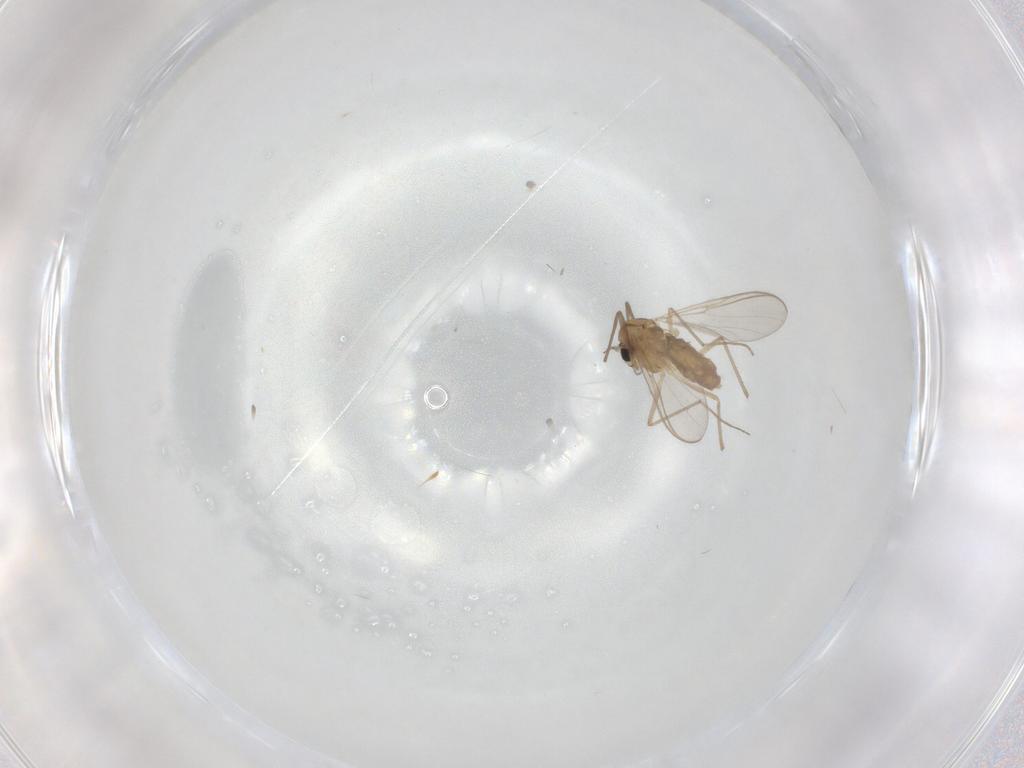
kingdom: Animalia
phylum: Arthropoda
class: Insecta
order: Diptera
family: Chironomidae
